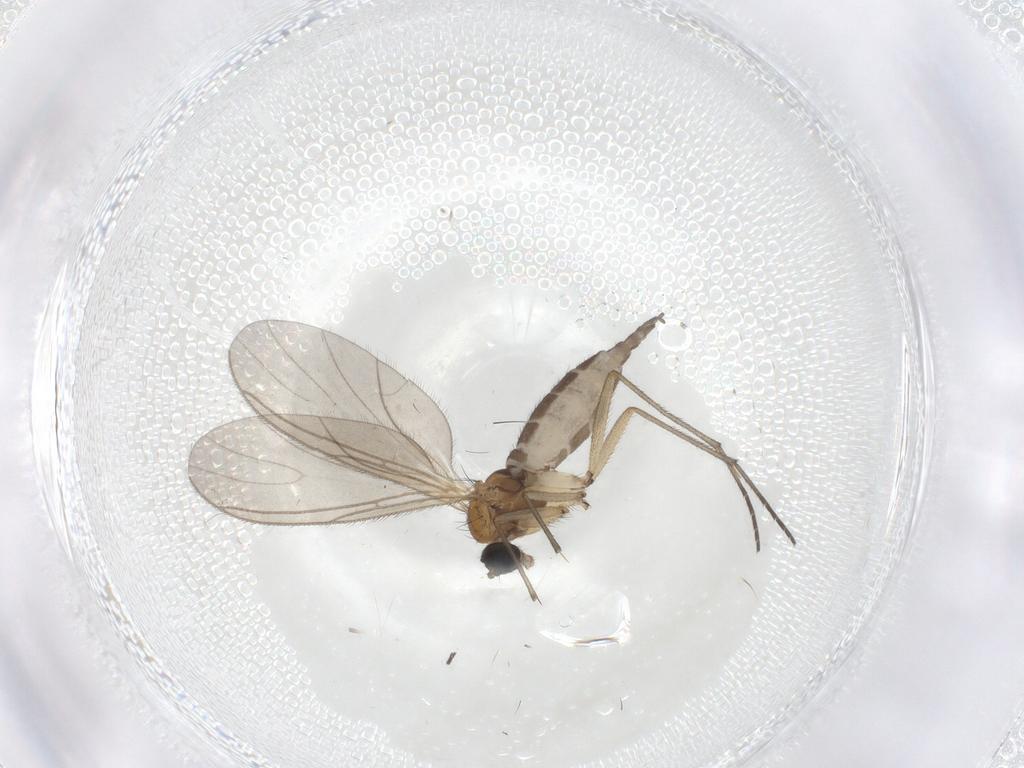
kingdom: Animalia
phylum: Arthropoda
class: Insecta
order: Diptera
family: Sciaridae
